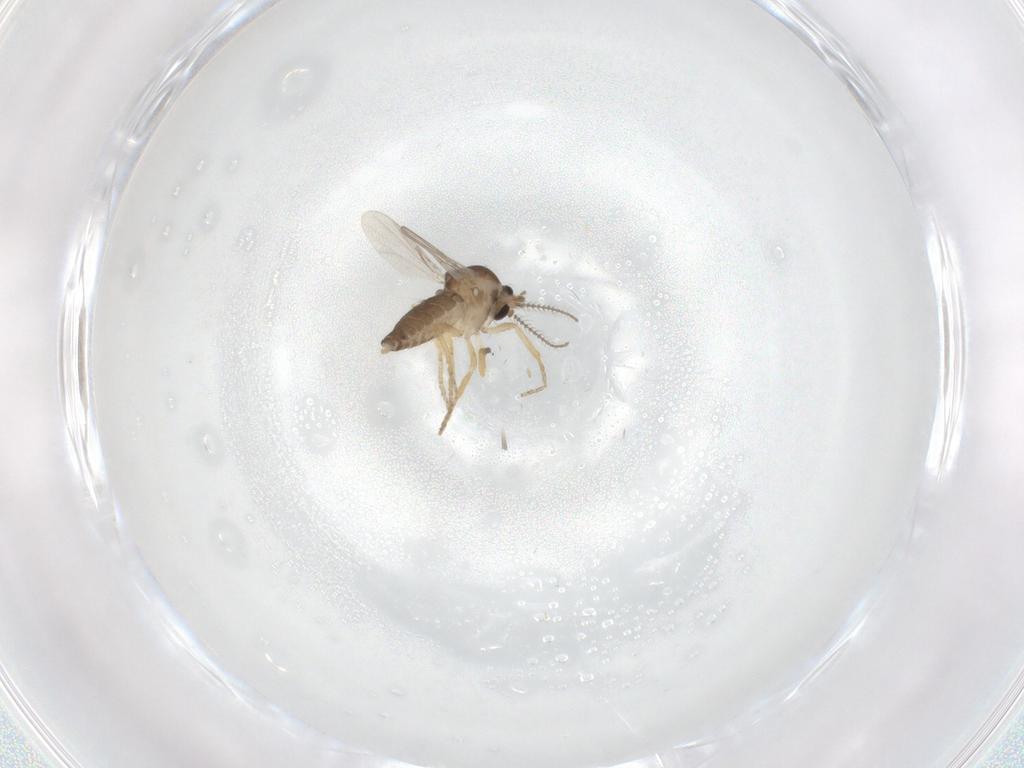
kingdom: Animalia
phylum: Arthropoda
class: Insecta
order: Diptera
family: Ceratopogonidae
